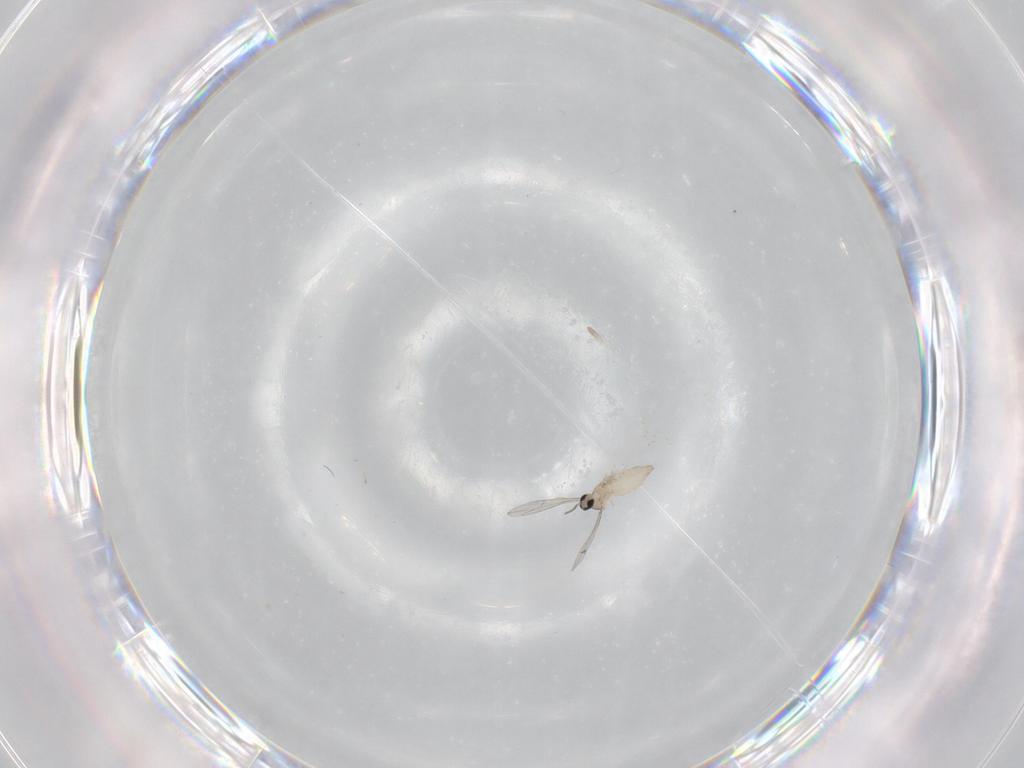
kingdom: Animalia
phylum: Arthropoda
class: Insecta
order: Diptera
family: Cecidomyiidae
